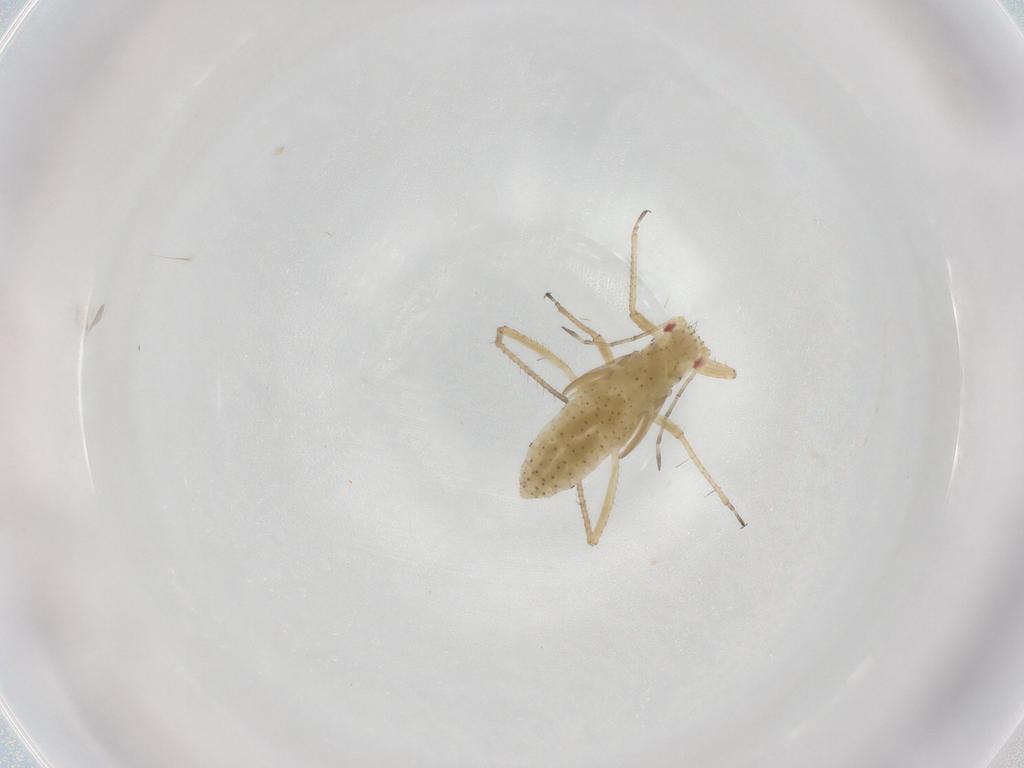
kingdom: Animalia
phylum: Arthropoda
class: Insecta
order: Hemiptera
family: Aphididae
